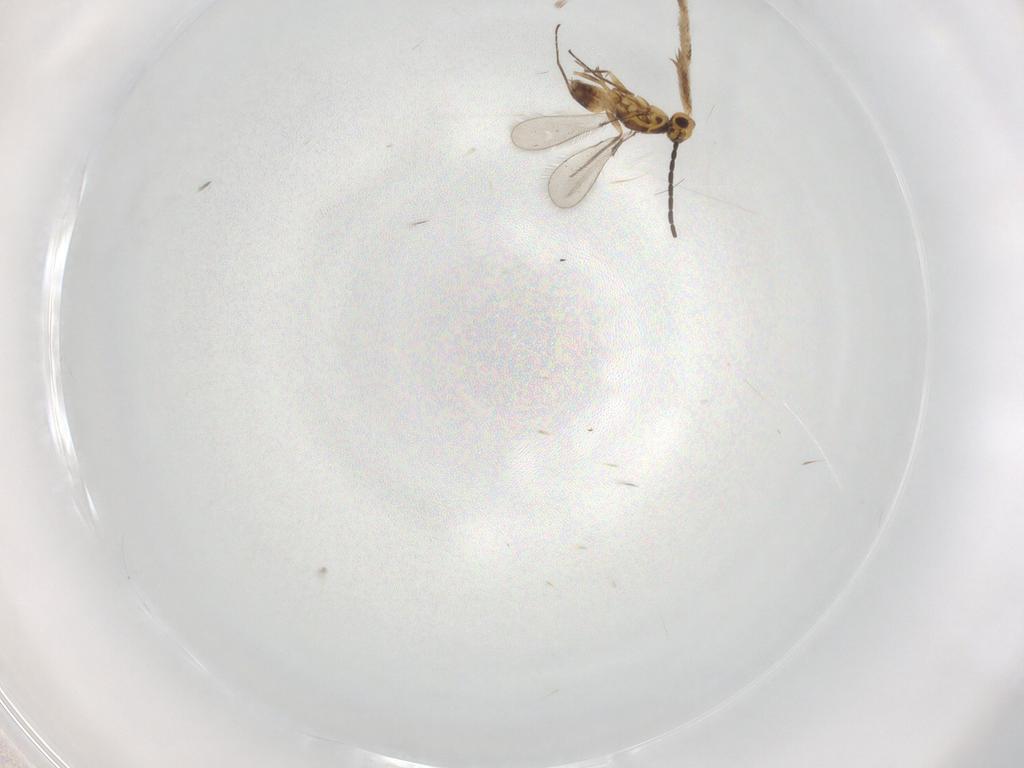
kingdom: Animalia
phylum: Arthropoda
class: Insecta
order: Hymenoptera
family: Mymaridae
